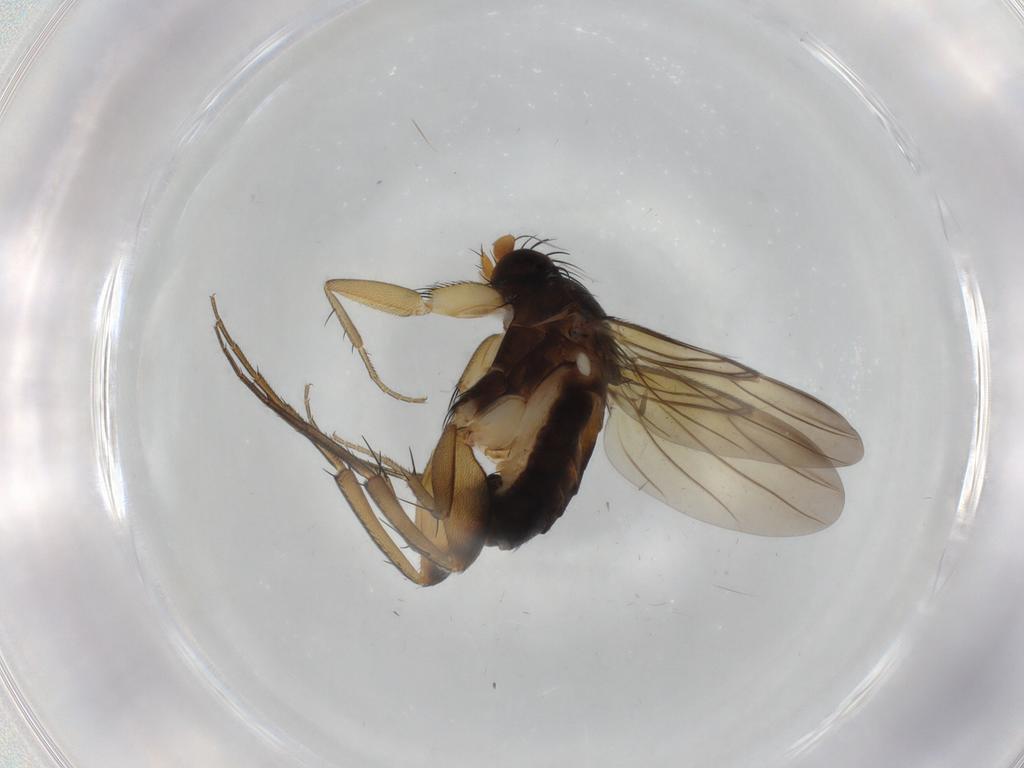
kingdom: Animalia
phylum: Arthropoda
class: Insecta
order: Diptera
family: Phoridae
